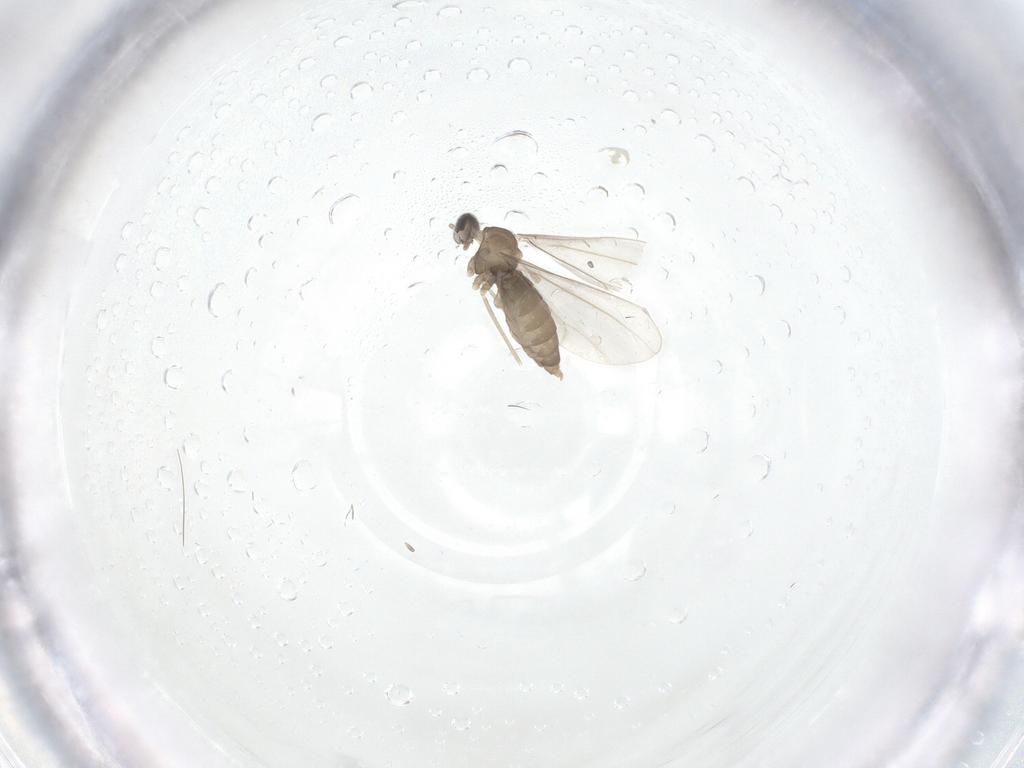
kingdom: Animalia
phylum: Arthropoda
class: Insecta
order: Diptera
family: Cecidomyiidae
